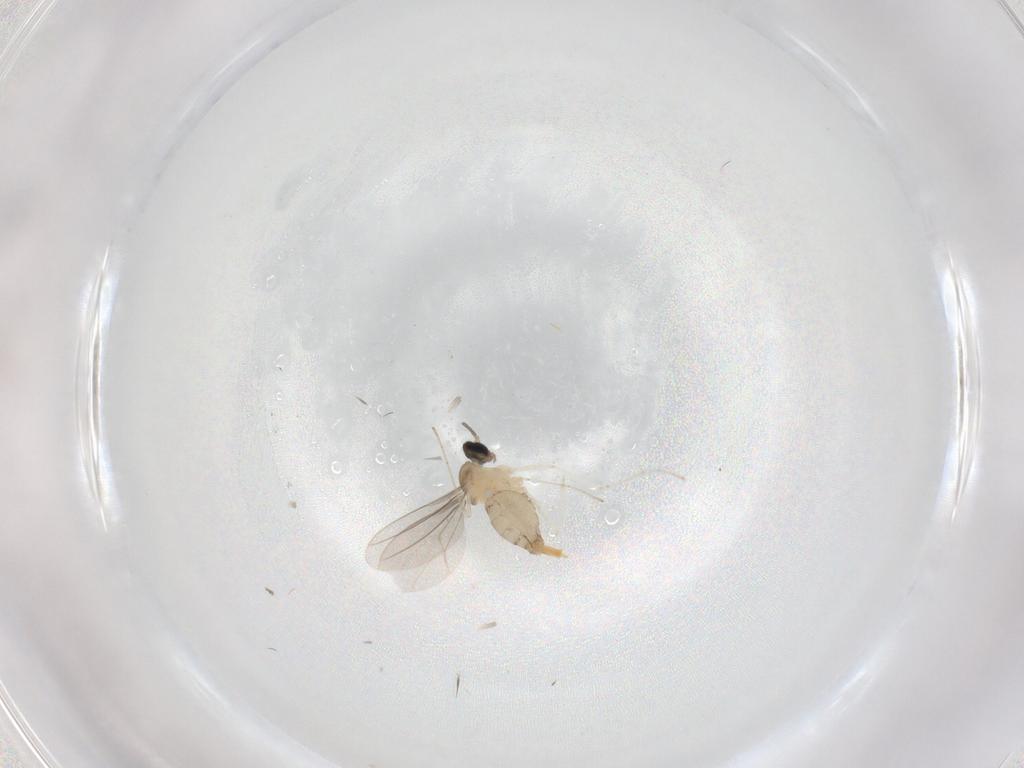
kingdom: Animalia
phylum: Arthropoda
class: Insecta
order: Diptera
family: Cecidomyiidae
